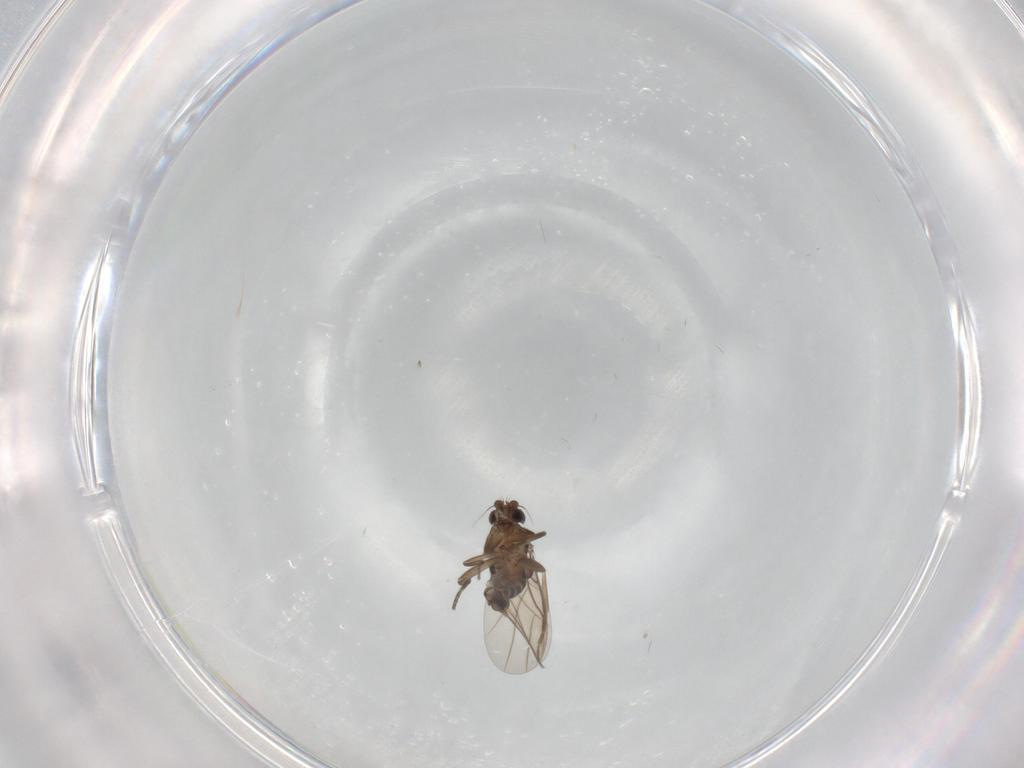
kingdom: Animalia
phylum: Arthropoda
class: Insecta
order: Diptera
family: Phoridae
